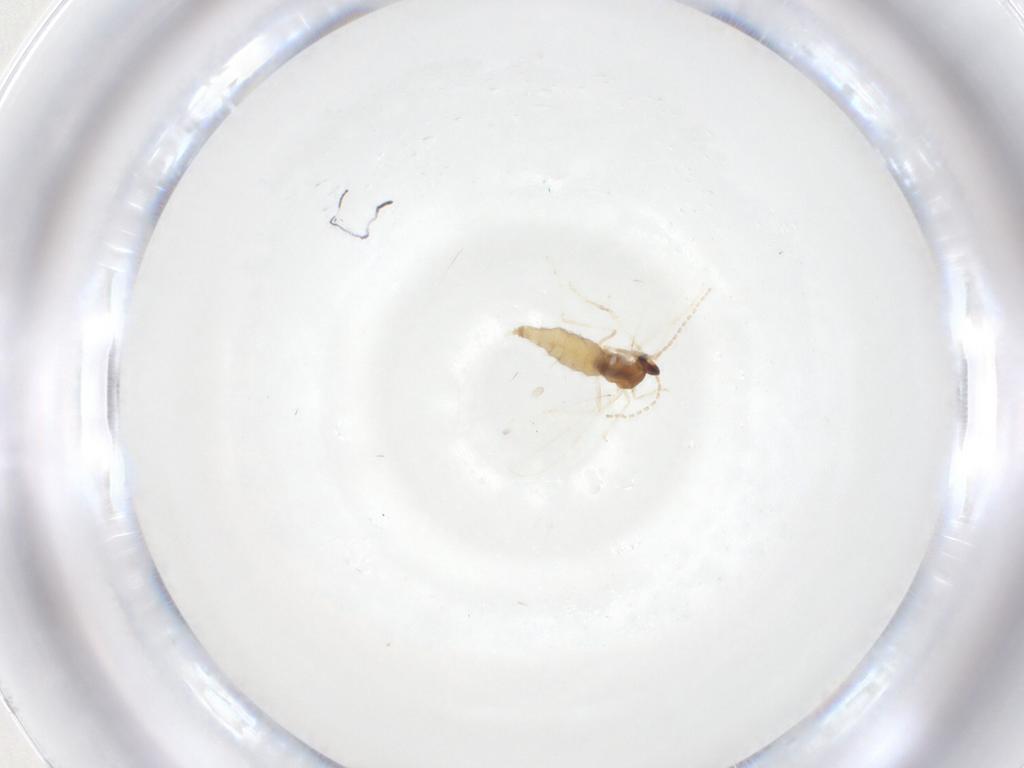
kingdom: Animalia
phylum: Arthropoda
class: Insecta
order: Diptera
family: Cecidomyiidae
